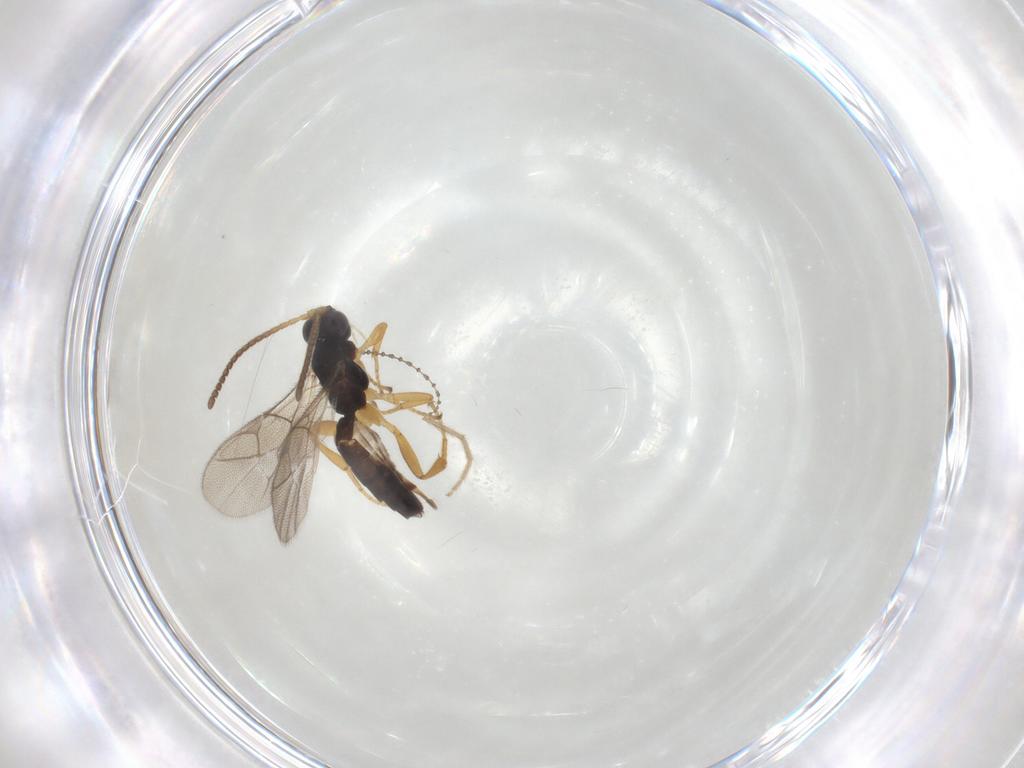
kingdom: Animalia
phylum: Arthropoda
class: Insecta
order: Hymenoptera
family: Ichneumonidae
